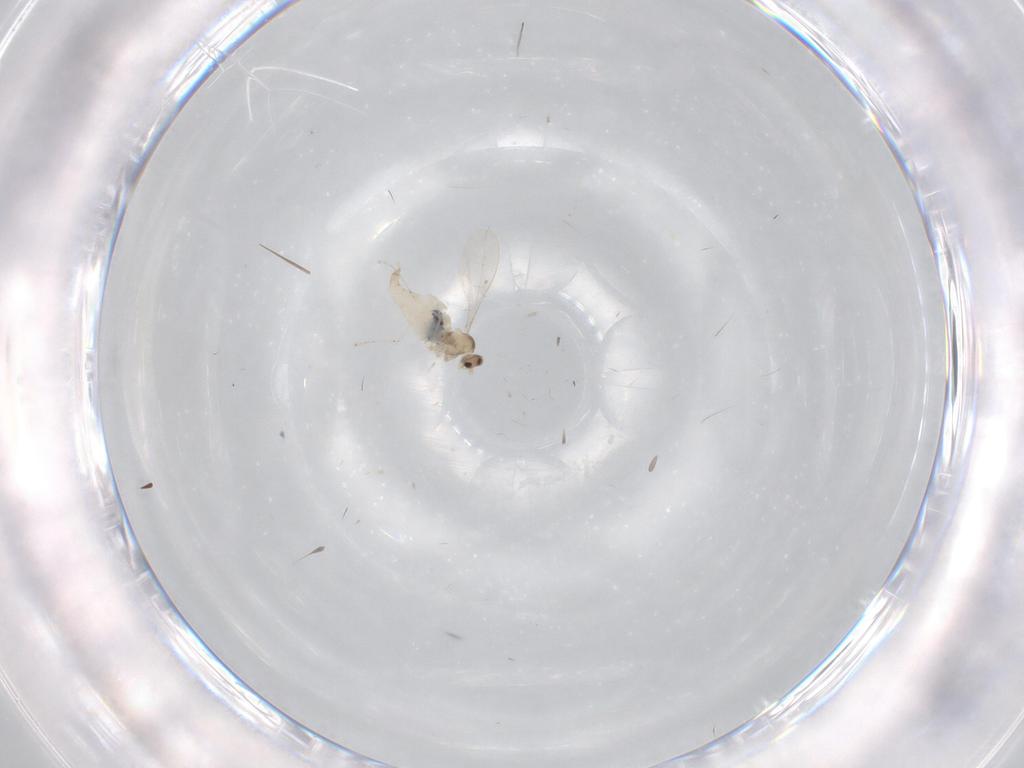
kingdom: Animalia
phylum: Arthropoda
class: Insecta
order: Diptera
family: Cecidomyiidae
